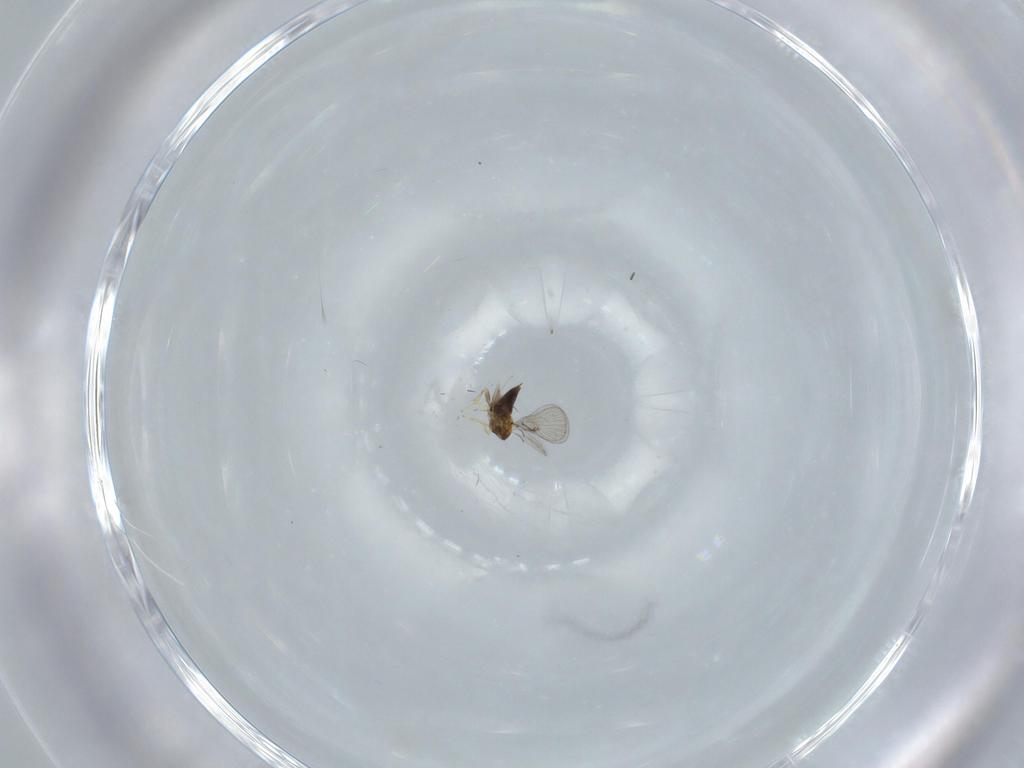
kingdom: Animalia
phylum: Arthropoda
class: Insecta
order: Hymenoptera
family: Trichogrammatidae
